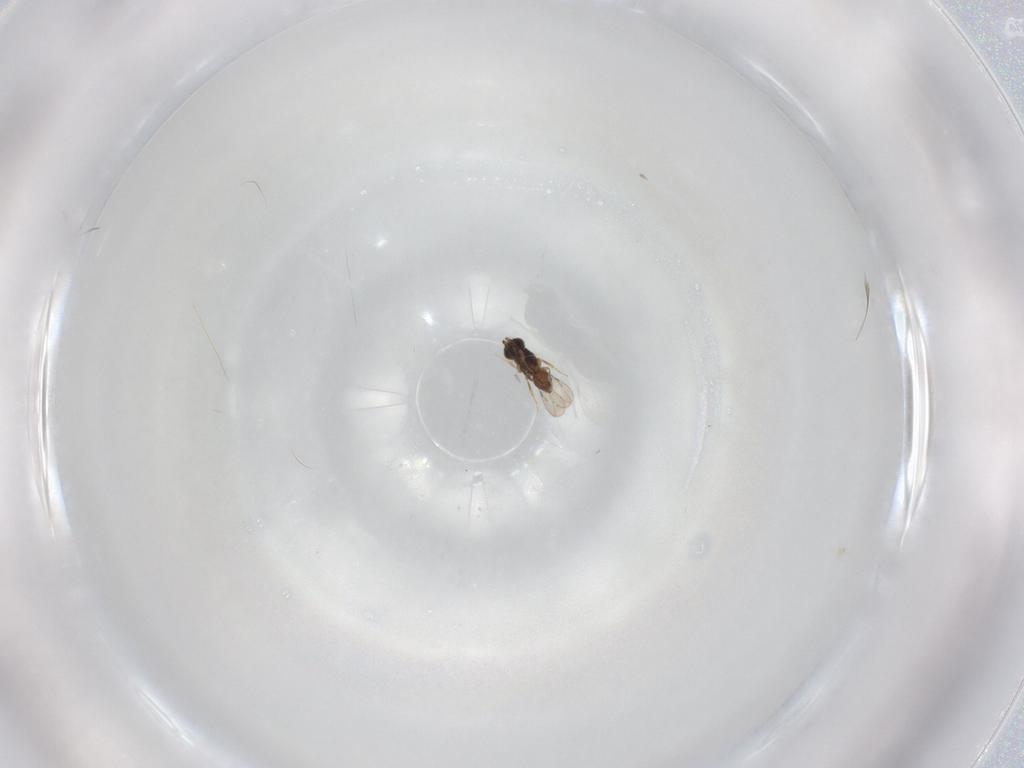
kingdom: Animalia
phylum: Arthropoda
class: Insecta
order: Hymenoptera
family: Ceraphronidae
